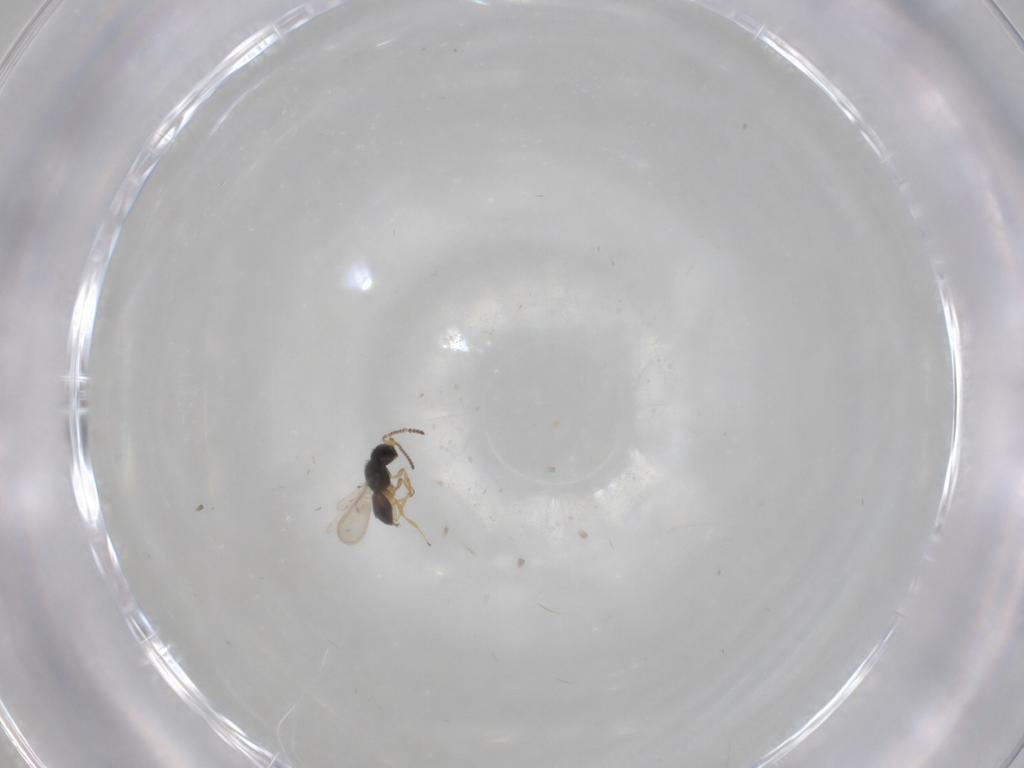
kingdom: Animalia
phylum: Arthropoda
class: Insecta
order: Hymenoptera
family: Scelionidae
